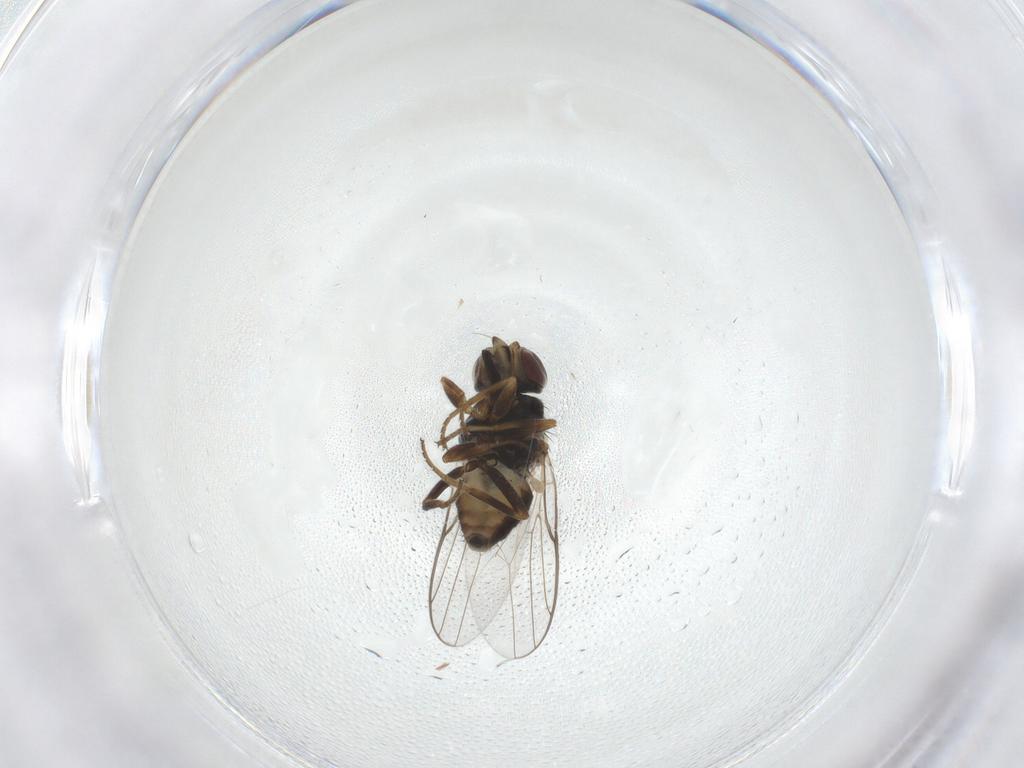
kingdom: Animalia
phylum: Arthropoda
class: Insecta
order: Diptera
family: Chloropidae
